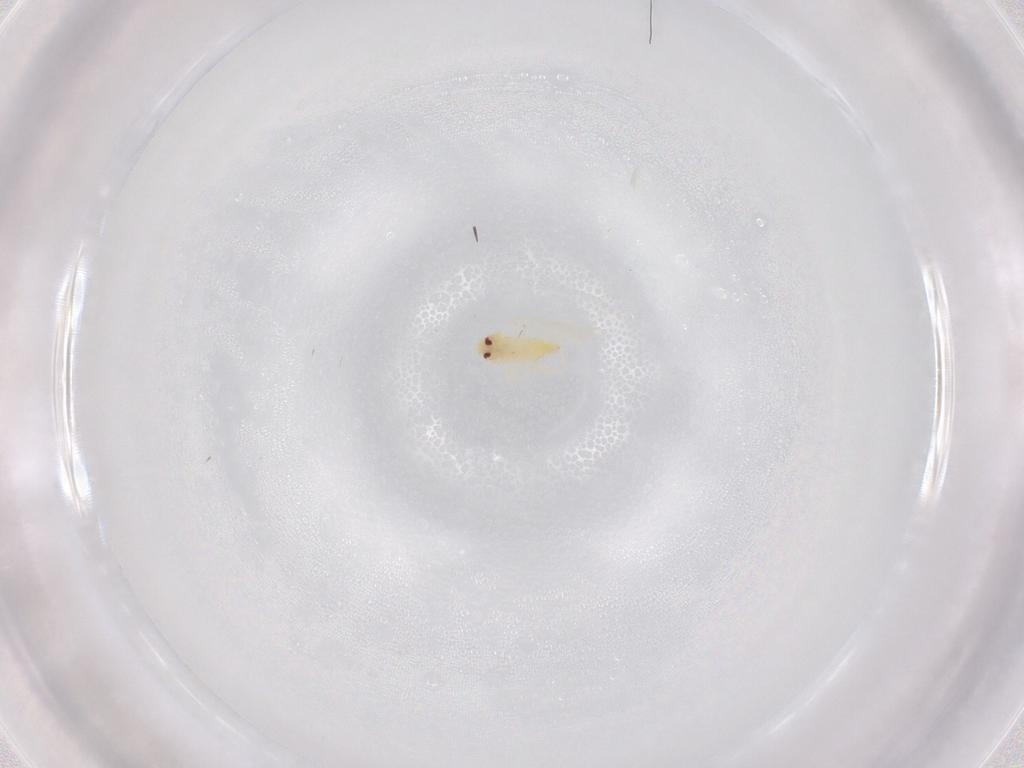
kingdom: Animalia
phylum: Arthropoda
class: Insecta
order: Hemiptera
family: Aleyrodidae
